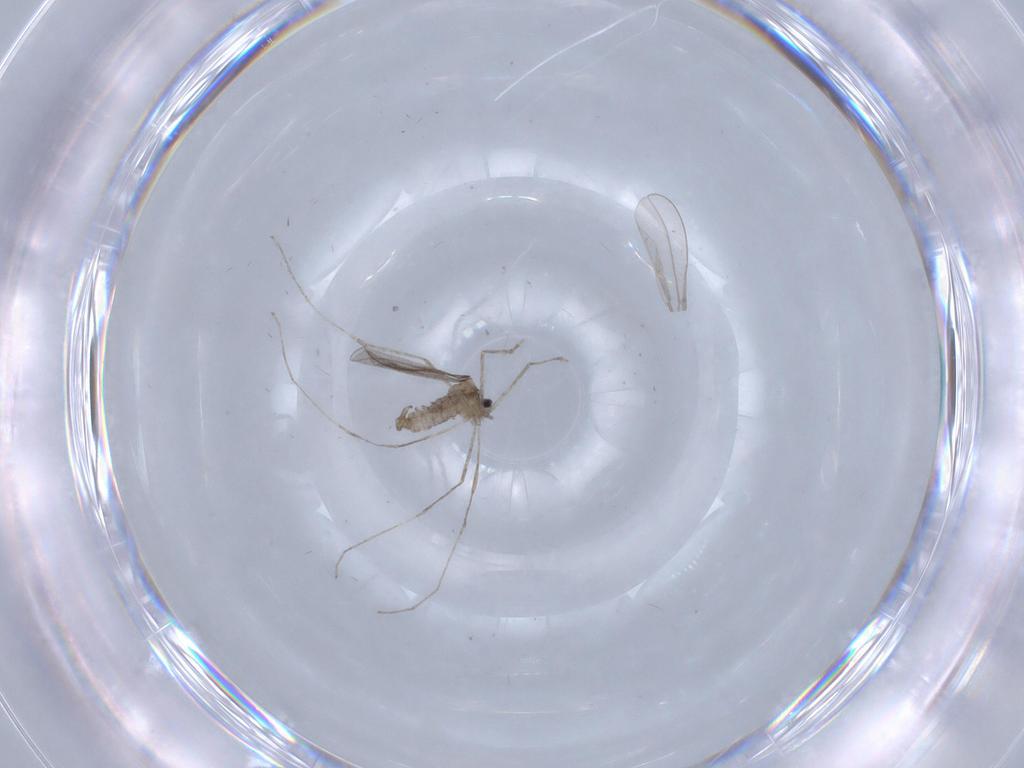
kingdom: Animalia
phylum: Arthropoda
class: Insecta
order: Diptera
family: Cecidomyiidae
